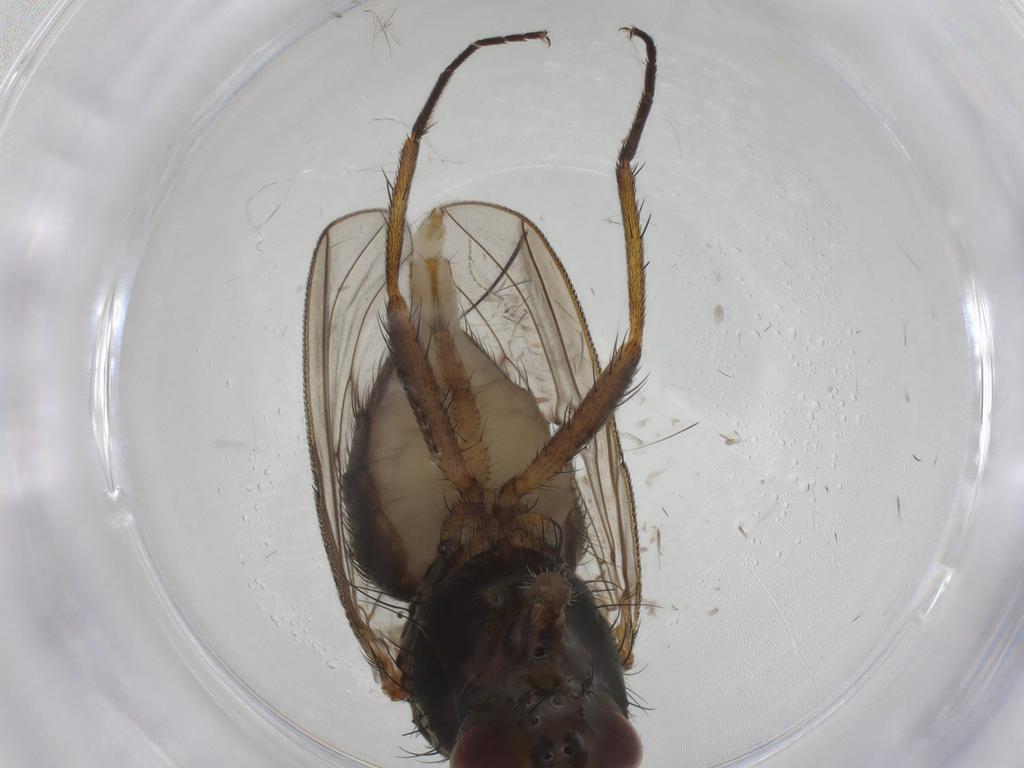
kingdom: Animalia
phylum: Arthropoda
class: Insecta
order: Diptera
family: Anthomyiidae
